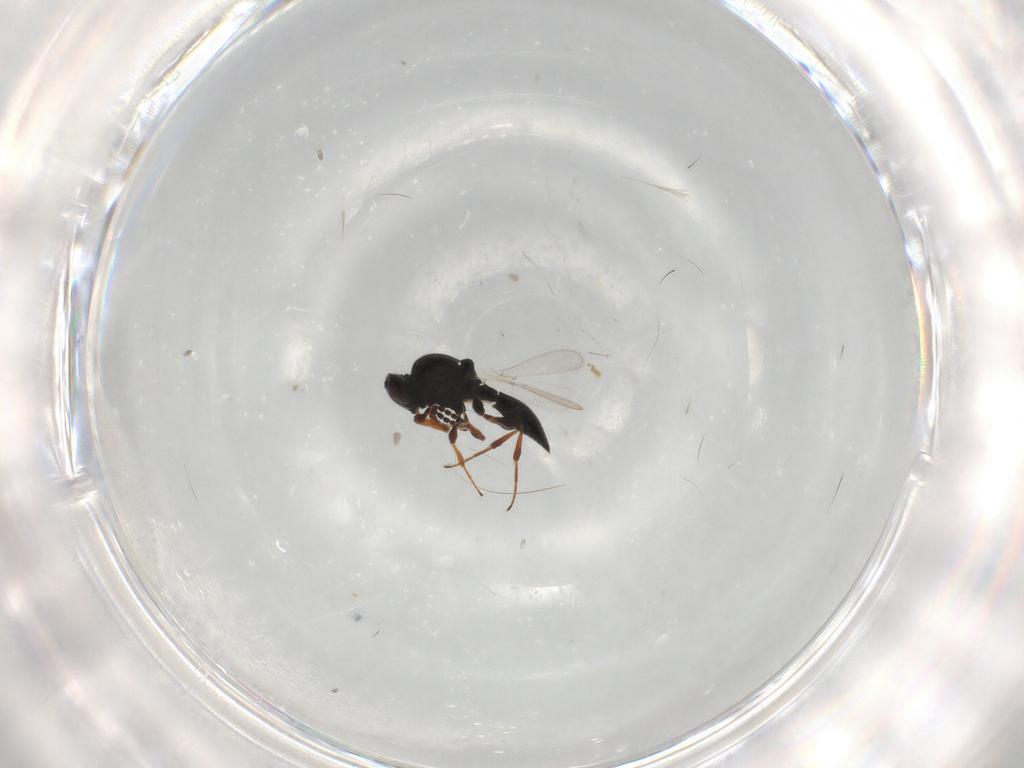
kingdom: Animalia
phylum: Arthropoda
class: Insecta
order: Hymenoptera
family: Platygastridae
